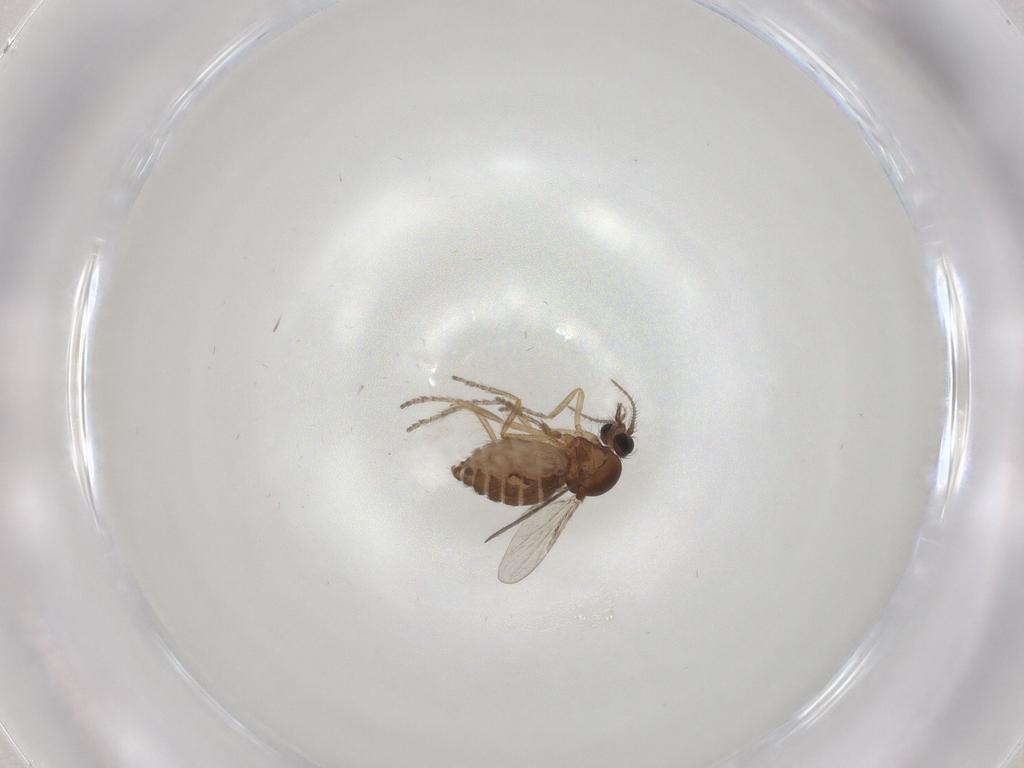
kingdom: Animalia
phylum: Arthropoda
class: Insecta
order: Diptera
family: Ceratopogonidae
